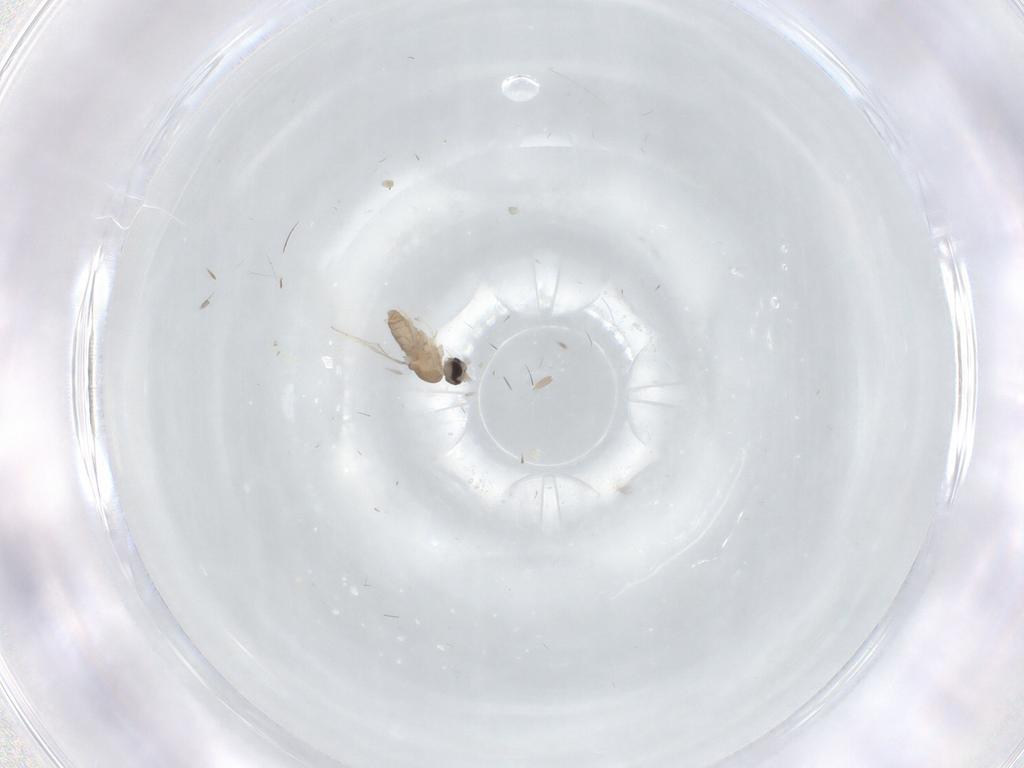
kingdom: Animalia
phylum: Arthropoda
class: Insecta
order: Diptera
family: Cecidomyiidae
